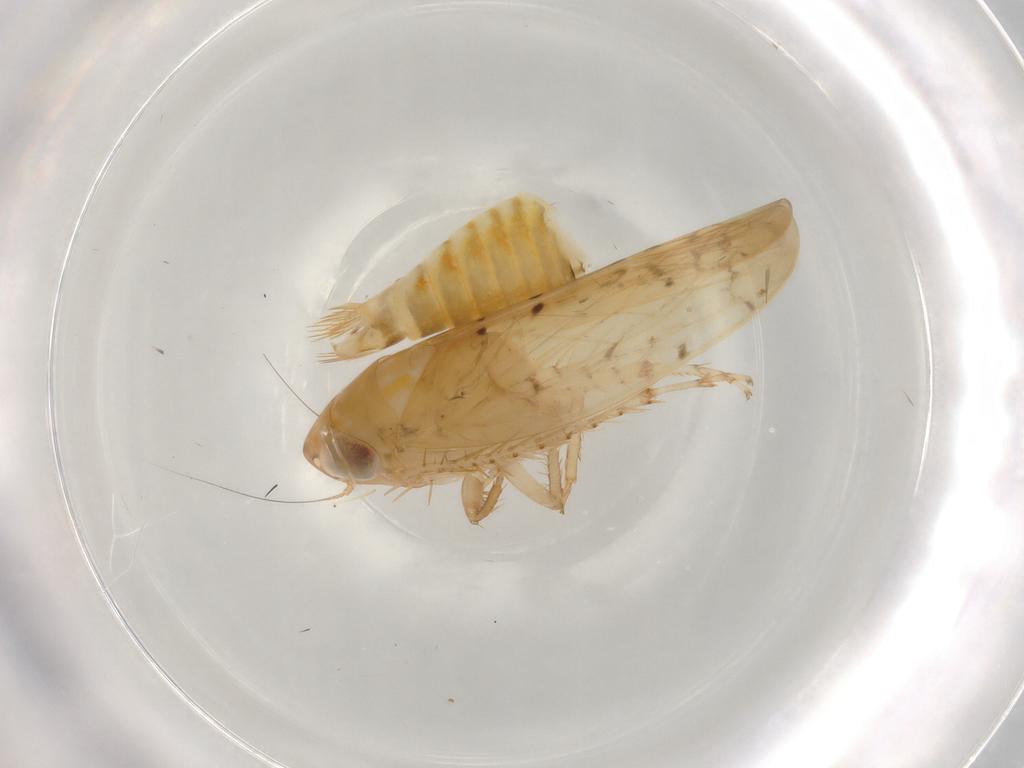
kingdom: Animalia
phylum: Arthropoda
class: Insecta
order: Hemiptera
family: Cicadellidae
